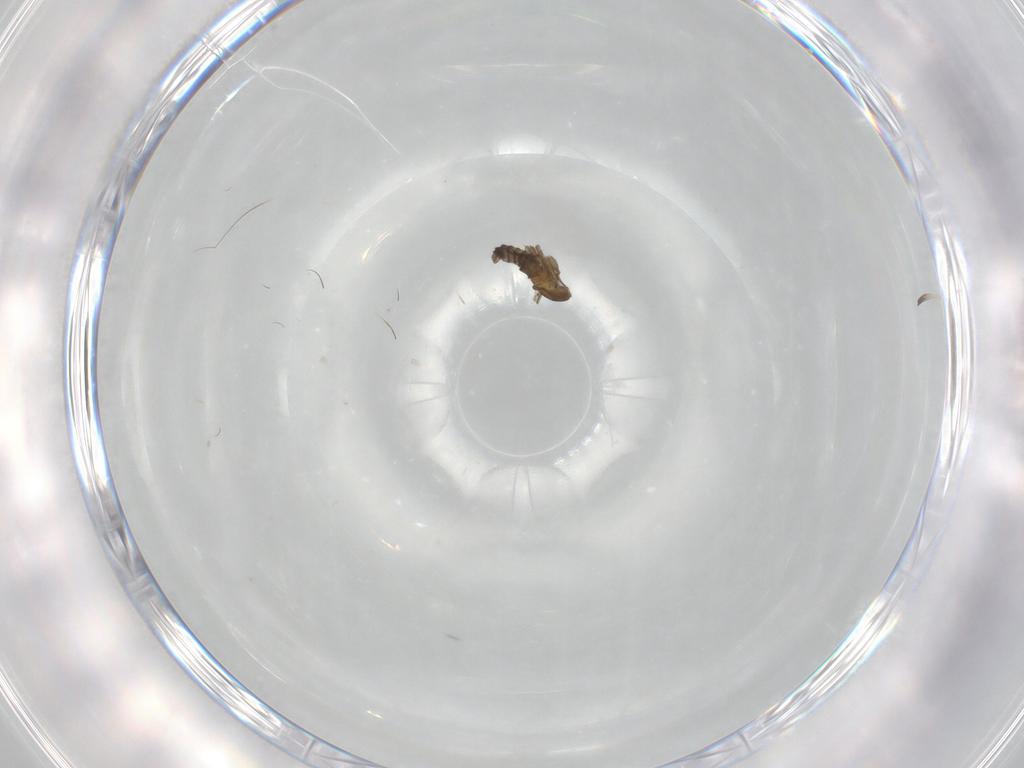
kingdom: Animalia
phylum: Arthropoda
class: Insecta
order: Diptera
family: Cecidomyiidae
